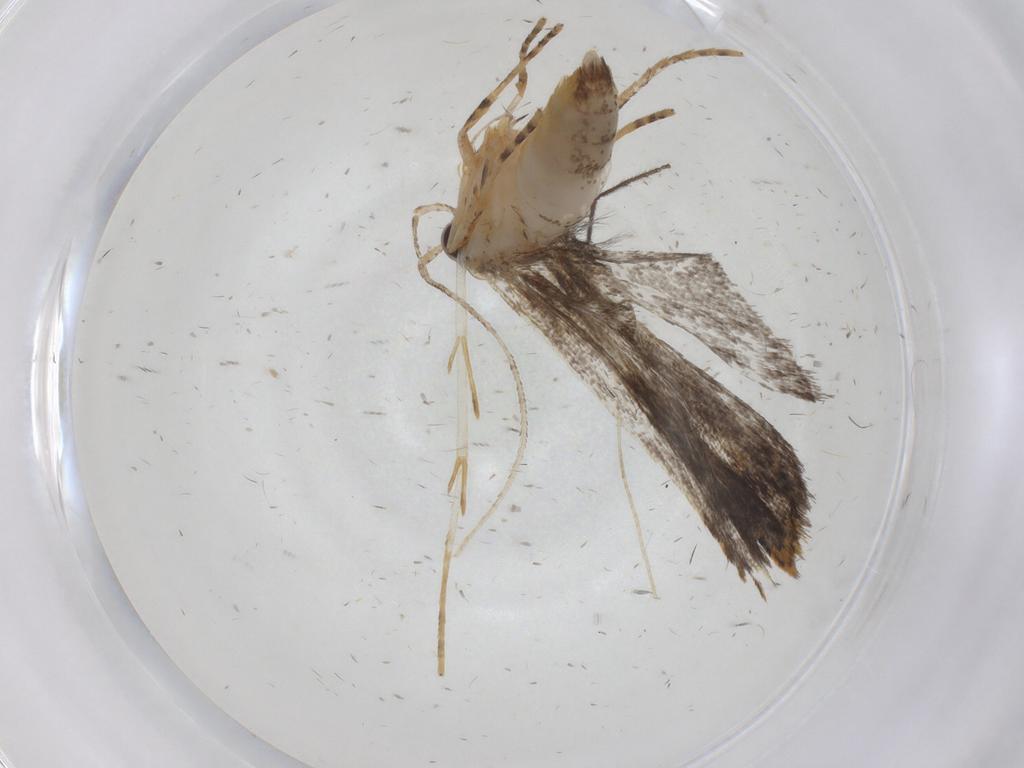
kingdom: Animalia
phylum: Arthropoda
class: Insecta
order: Lepidoptera
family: Cosmopterigidae
